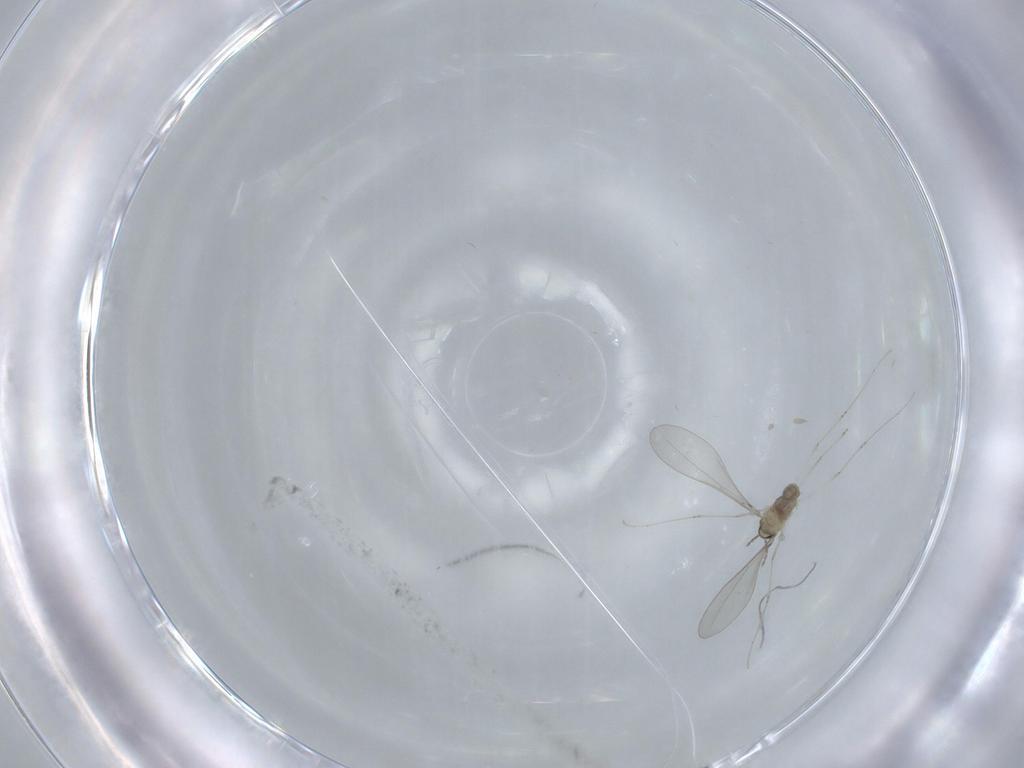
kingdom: Animalia
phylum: Arthropoda
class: Insecta
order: Diptera
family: Cecidomyiidae
